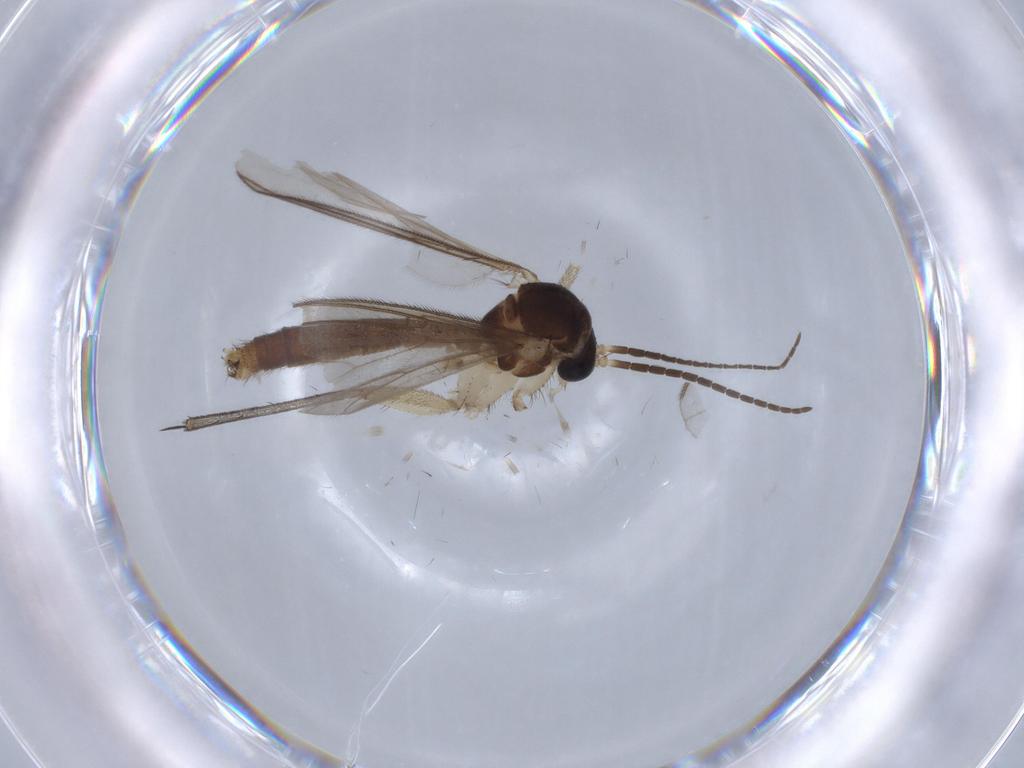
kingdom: Animalia
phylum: Arthropoda
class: Insecta
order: Diptera
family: Mycetophilidae
